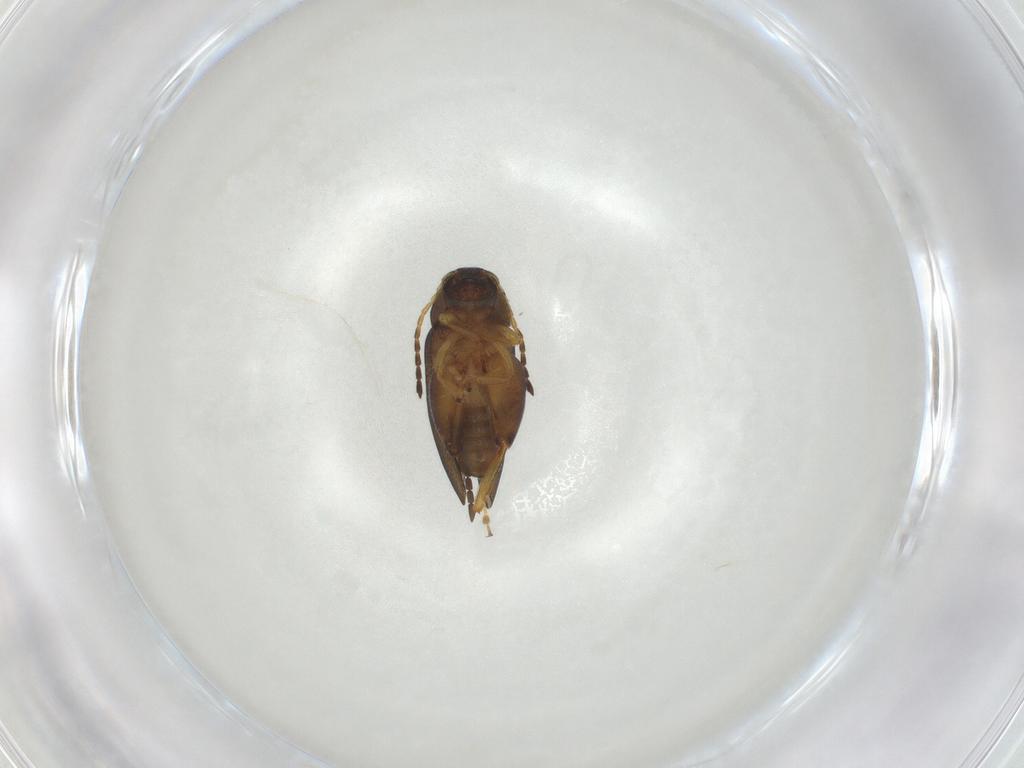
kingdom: Animalia
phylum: Arthropoda
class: Insecta
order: Coleoptera
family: Chrysomelidae
